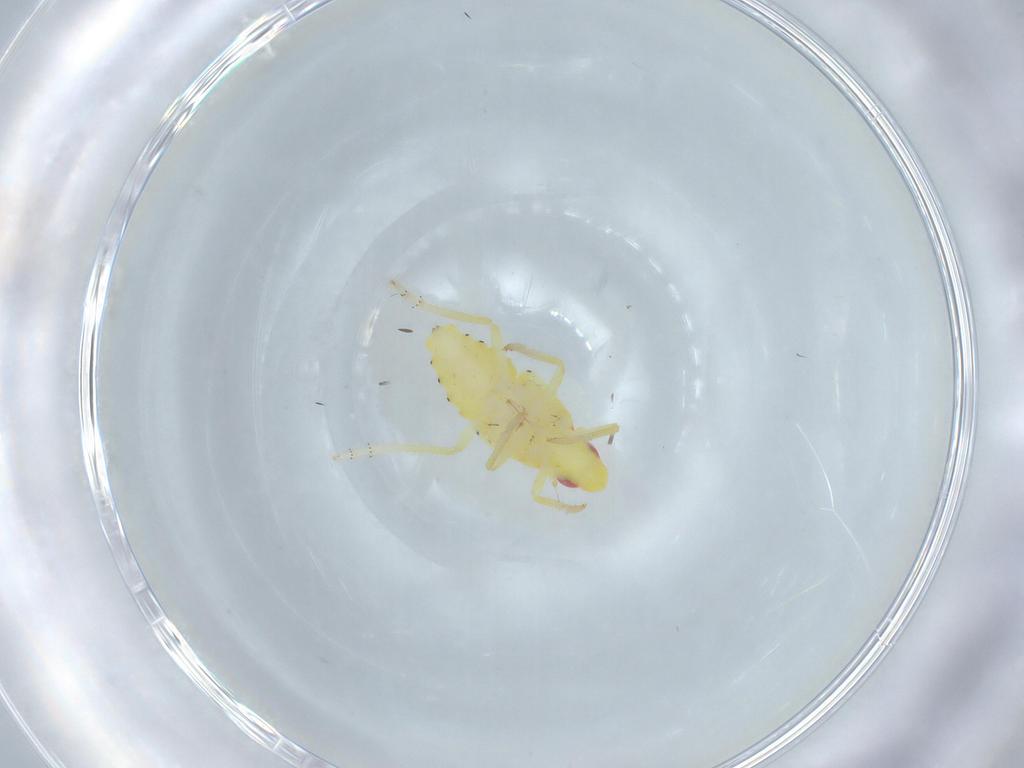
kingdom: Animalia
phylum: Arthropoda
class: Insecta
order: Hemiptera
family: Tropiduchidae
